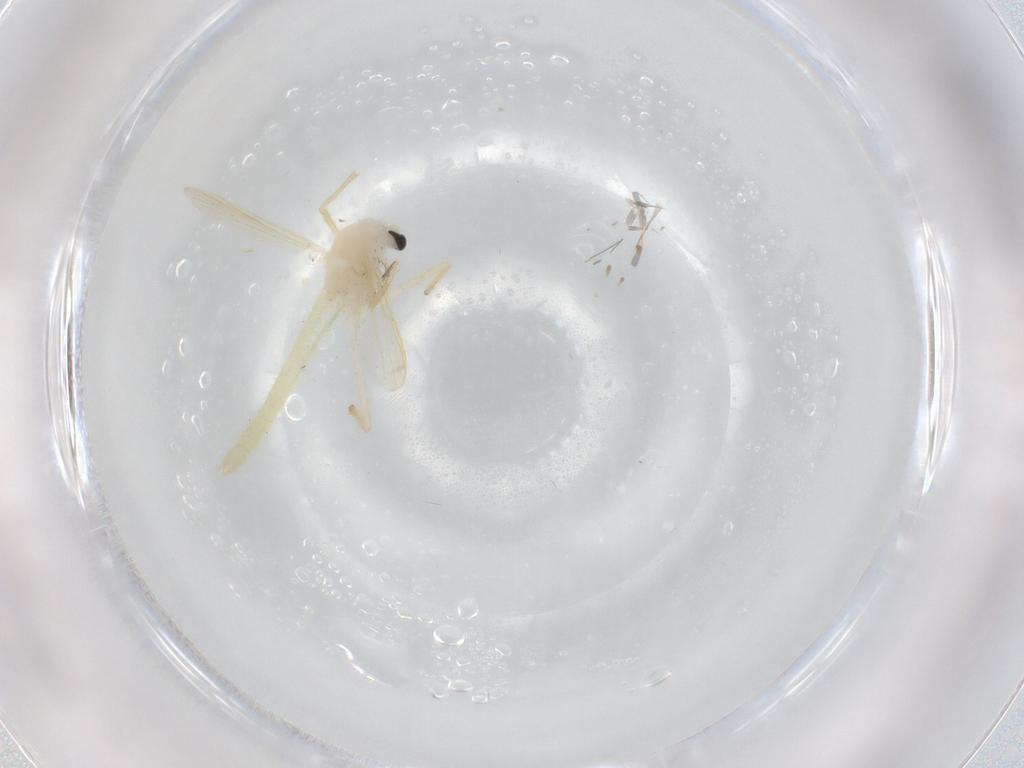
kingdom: Animalia
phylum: Arthropoda
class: Insecta
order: Diptera
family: Chironomidae
